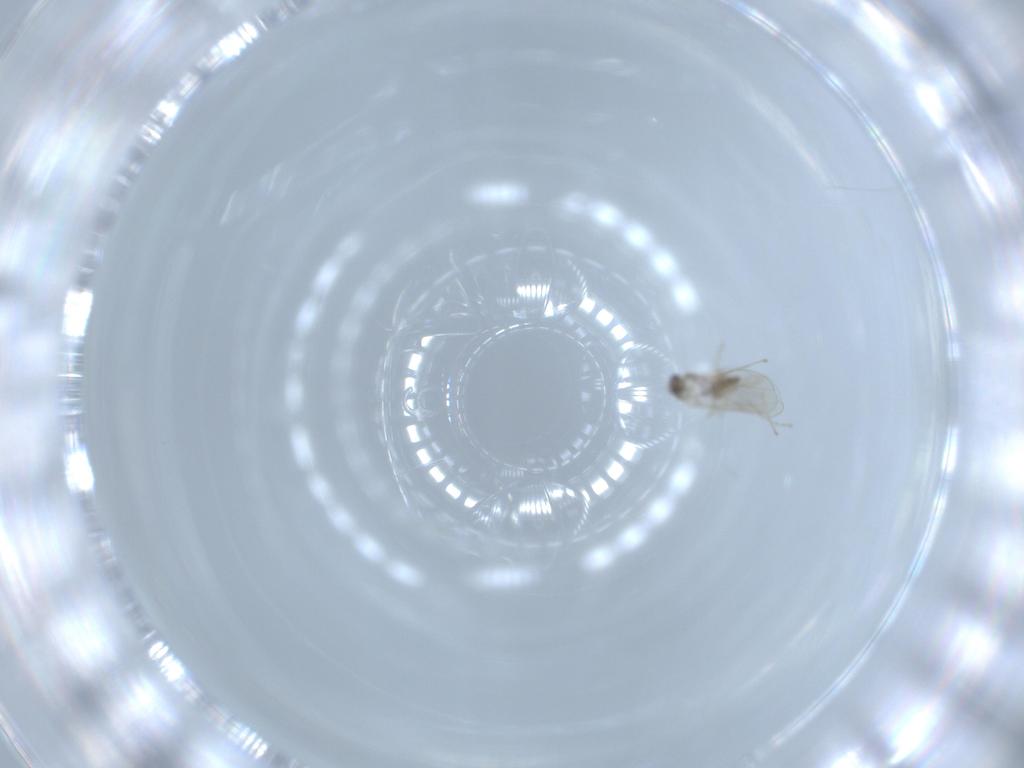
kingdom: Animalia
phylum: Arthropoda
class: Insecta
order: Diptera
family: Cecidomyiidae
